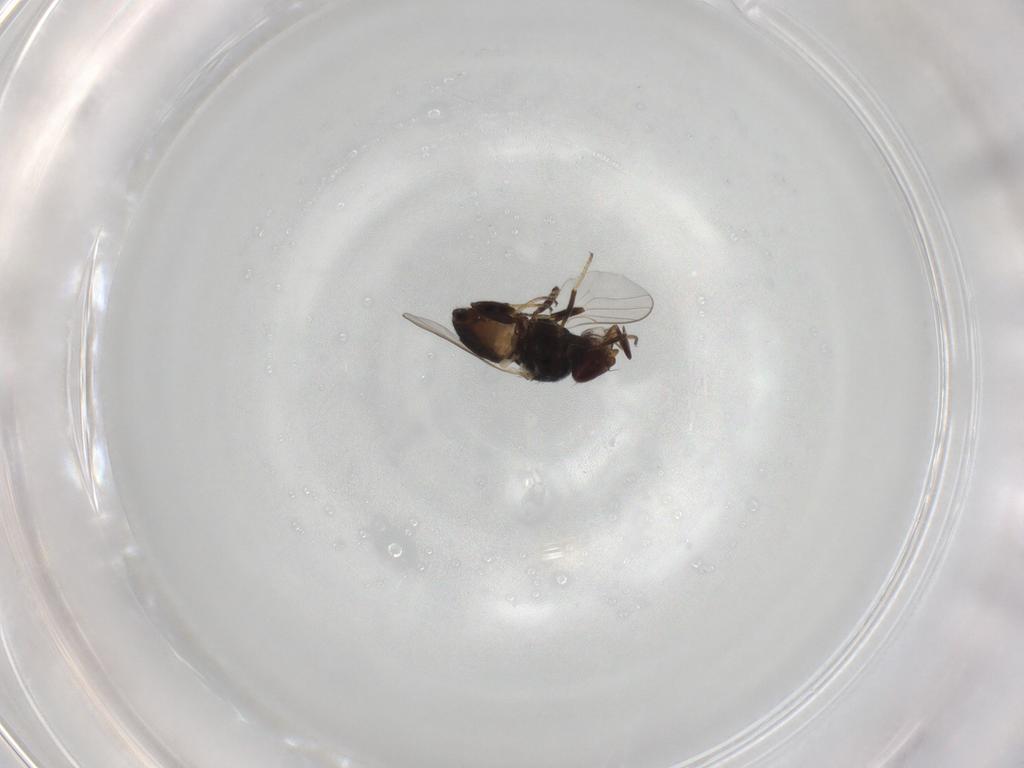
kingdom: Animalia
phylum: Arthropoda
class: Insecta
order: Diptera
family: Chloropidae
